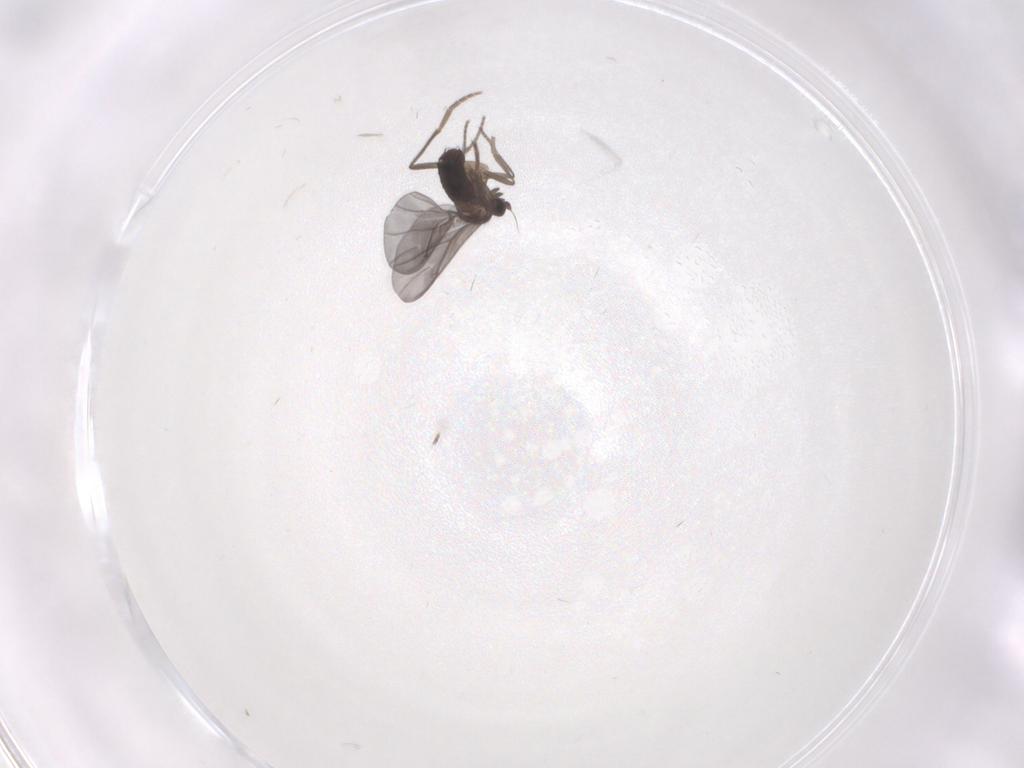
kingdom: Animalia
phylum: Arthropoda
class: Insecta
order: Diptera
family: Phoridae
